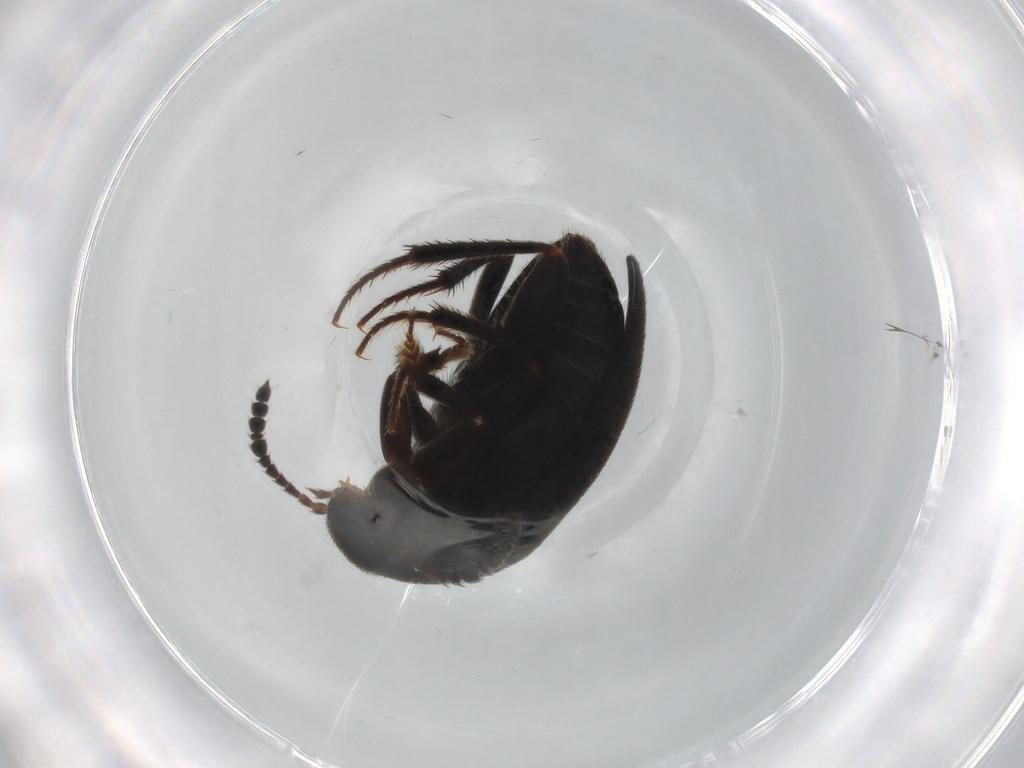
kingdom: Animalia
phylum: Arthropoda
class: Insecta
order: Coleoptera
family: Leiodidae
